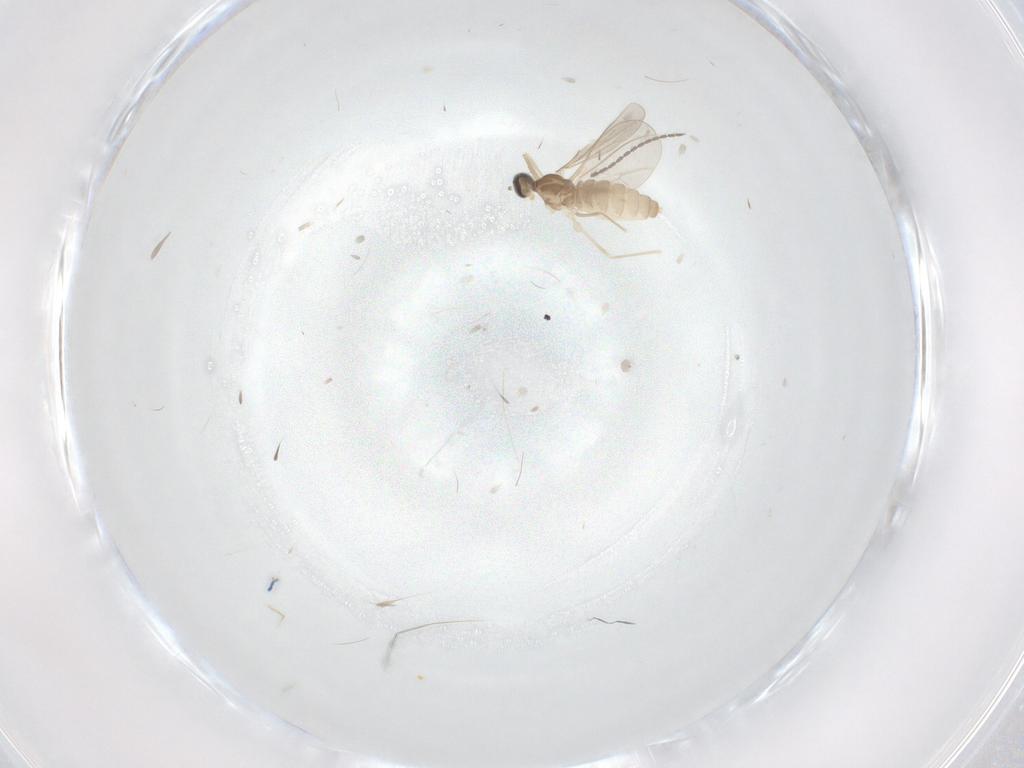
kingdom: Animalia
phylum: Arthropoda
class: Insecta
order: Diptera
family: Cecidomyiidae
